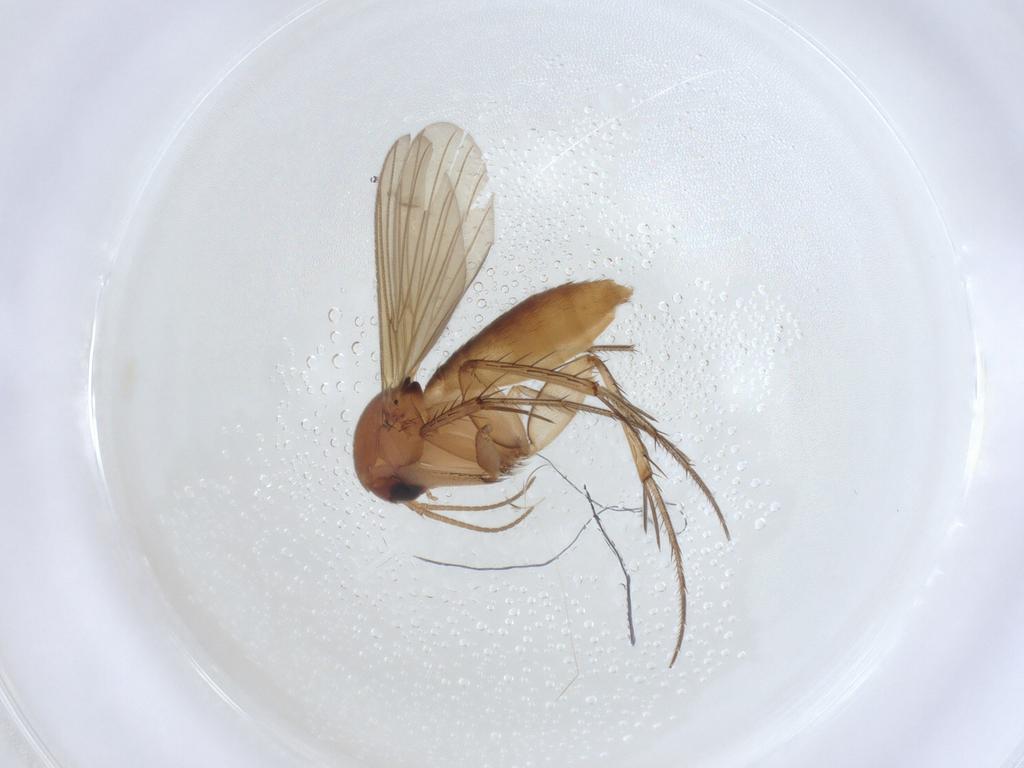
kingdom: Animalia
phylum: Arthropoda
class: Insecta
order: Diptera
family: Mycetophilidae
